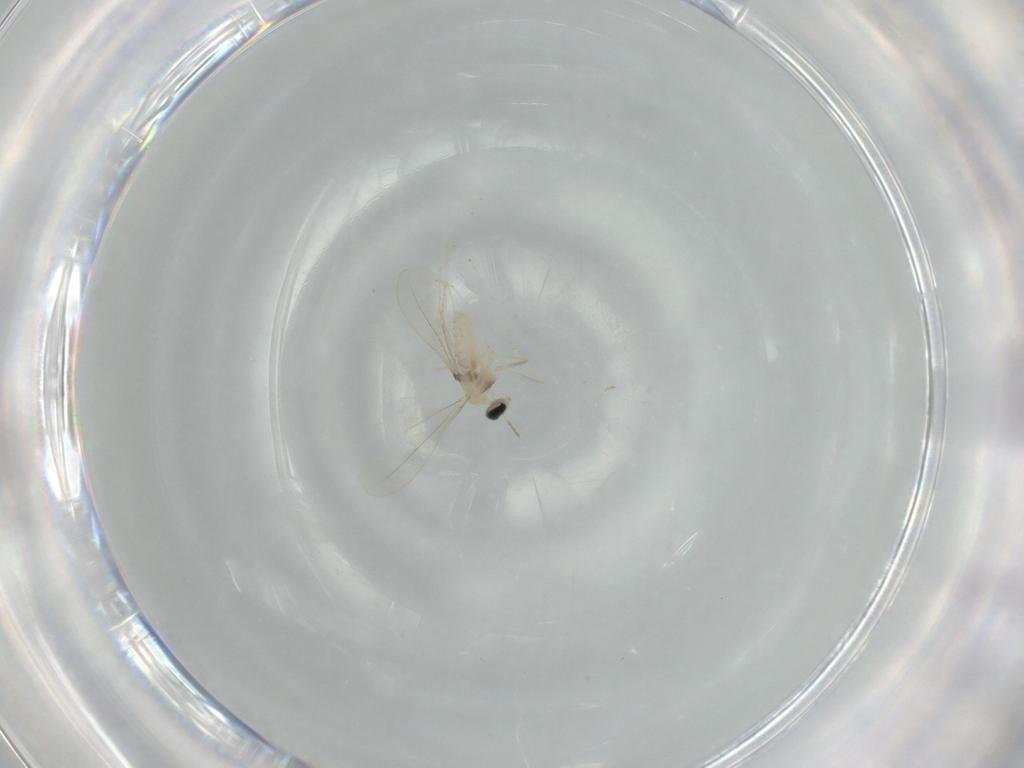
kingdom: Animalia
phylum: Arthropoda
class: Insecta
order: Diptera
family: Cecidomyiidae
